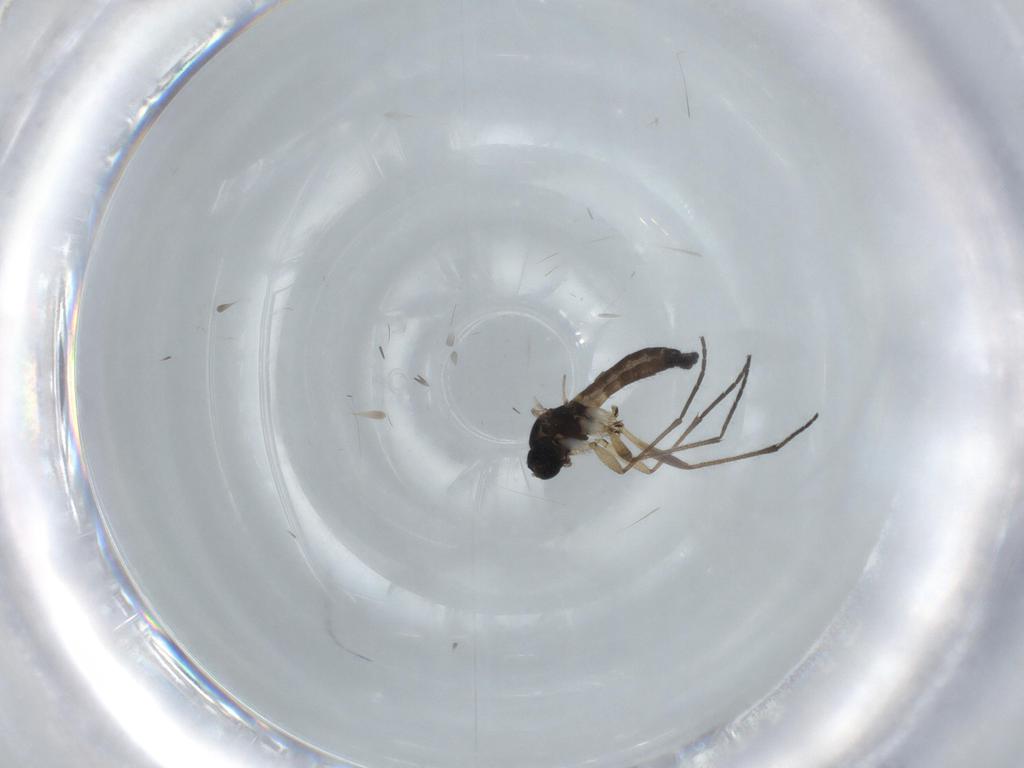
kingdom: Animalia
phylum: Arthropoda
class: Insecta
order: Diptera
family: Sciaridae
